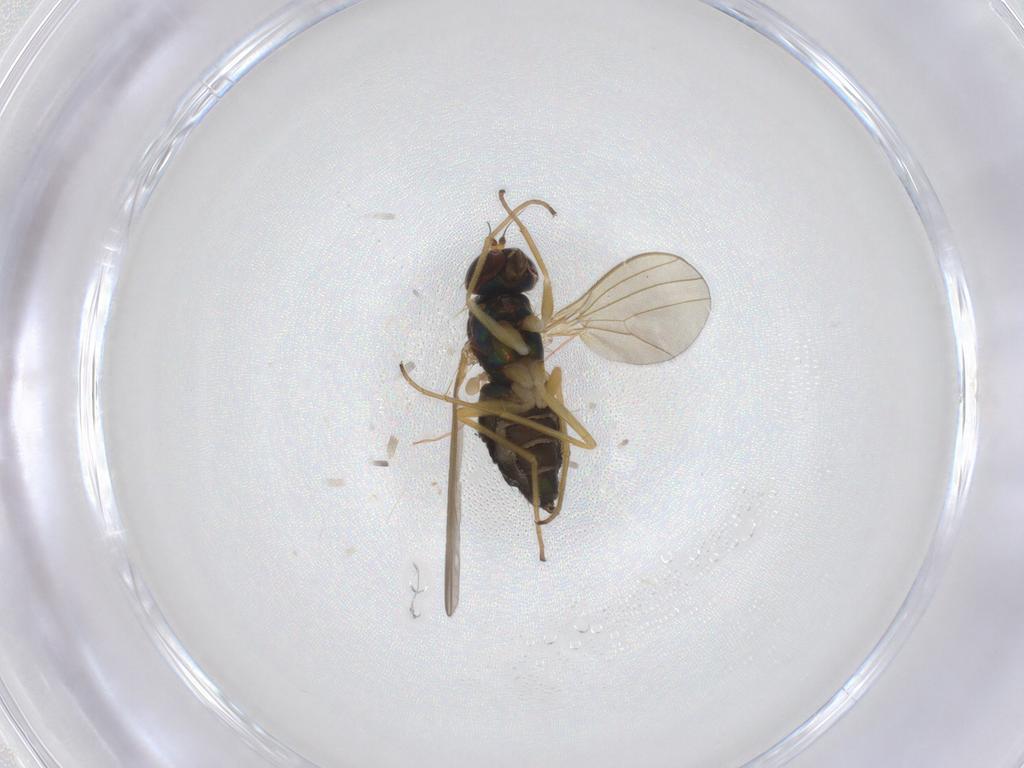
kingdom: Animalia
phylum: Arthropoda
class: Insecta
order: Diptera
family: Dolichopodidae
